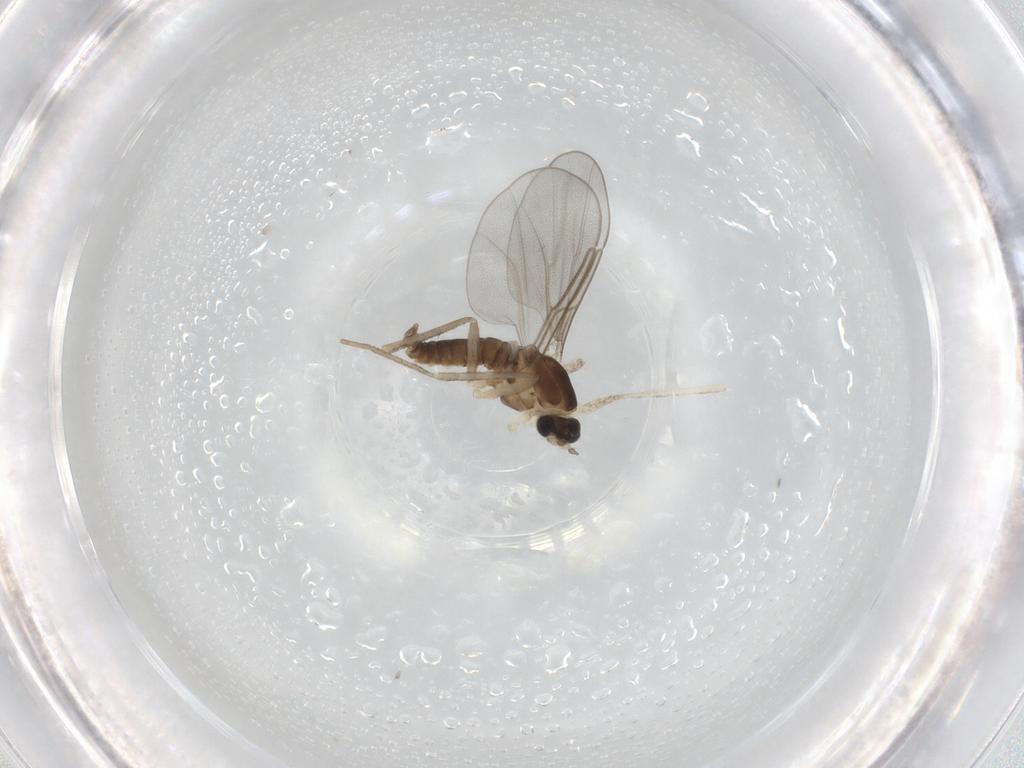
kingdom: Animalia
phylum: Arthropoda
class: Insecta
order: Diptera
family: Cecidomyiidae
